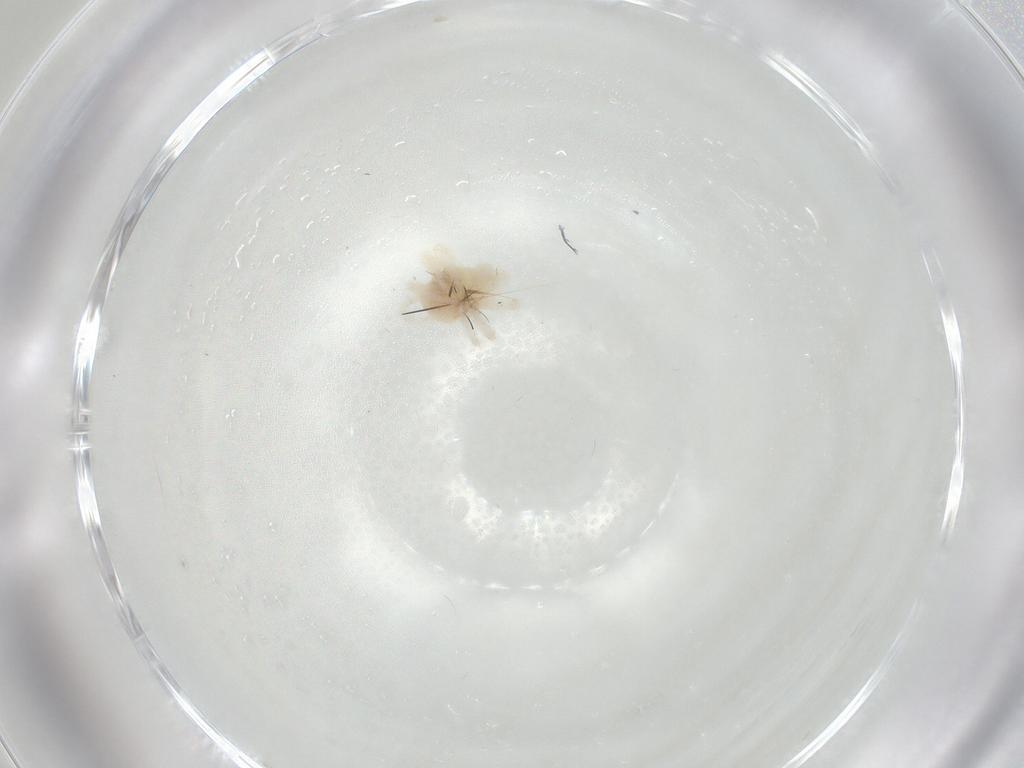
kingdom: Animalia
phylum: Arthropoda
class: Arachnida
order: Trombidiformes
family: Anystidae
